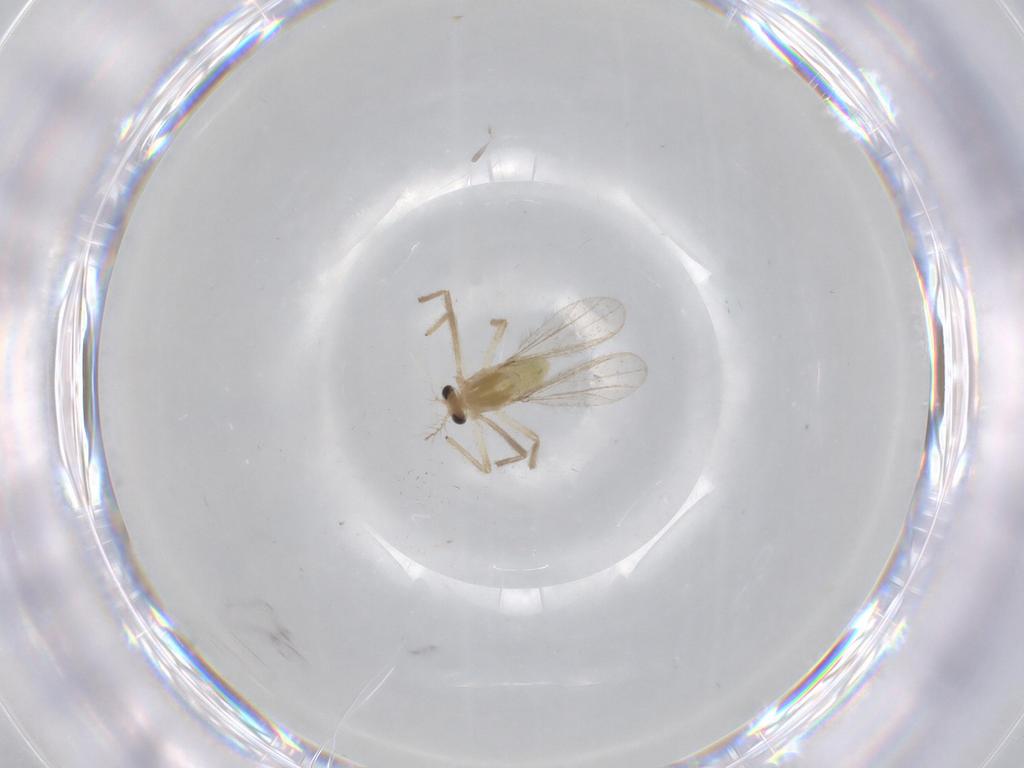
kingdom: Animalia
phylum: Arthropoda
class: Insecta
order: Diptera
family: Chironomidae
